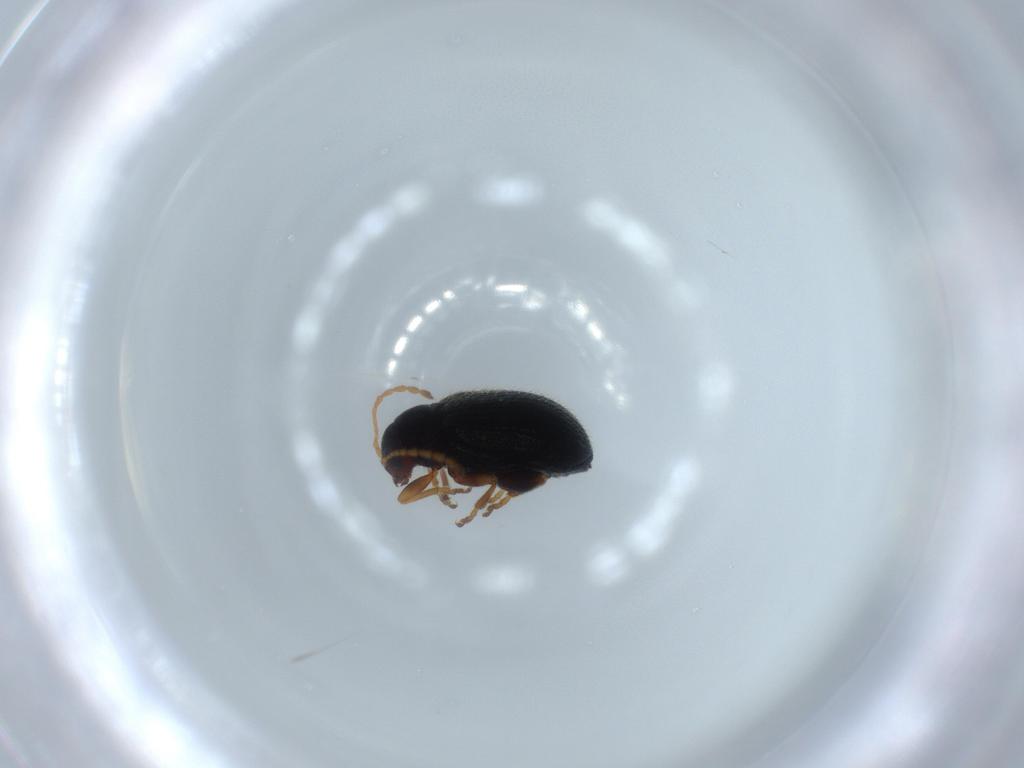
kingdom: Animalia
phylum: Arthropoda
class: Insecta
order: Coleoptera
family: Chrysomelidae
